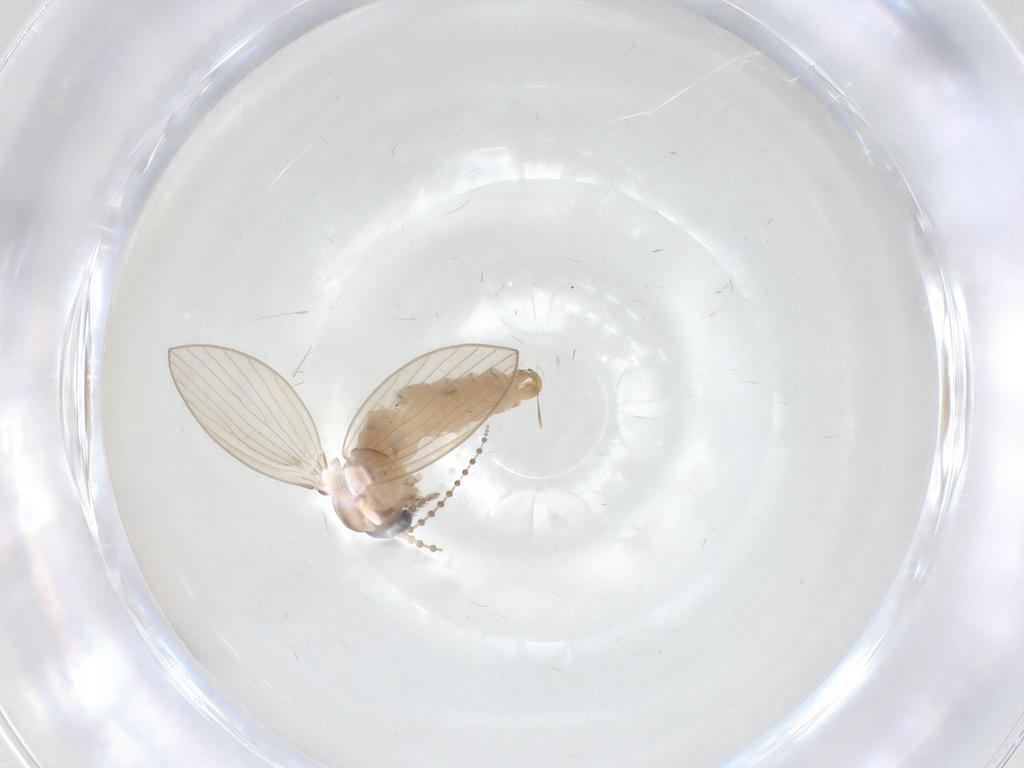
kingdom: Animalia
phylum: Arthropoda
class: Insecta
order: Diptera
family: Psychodidae
